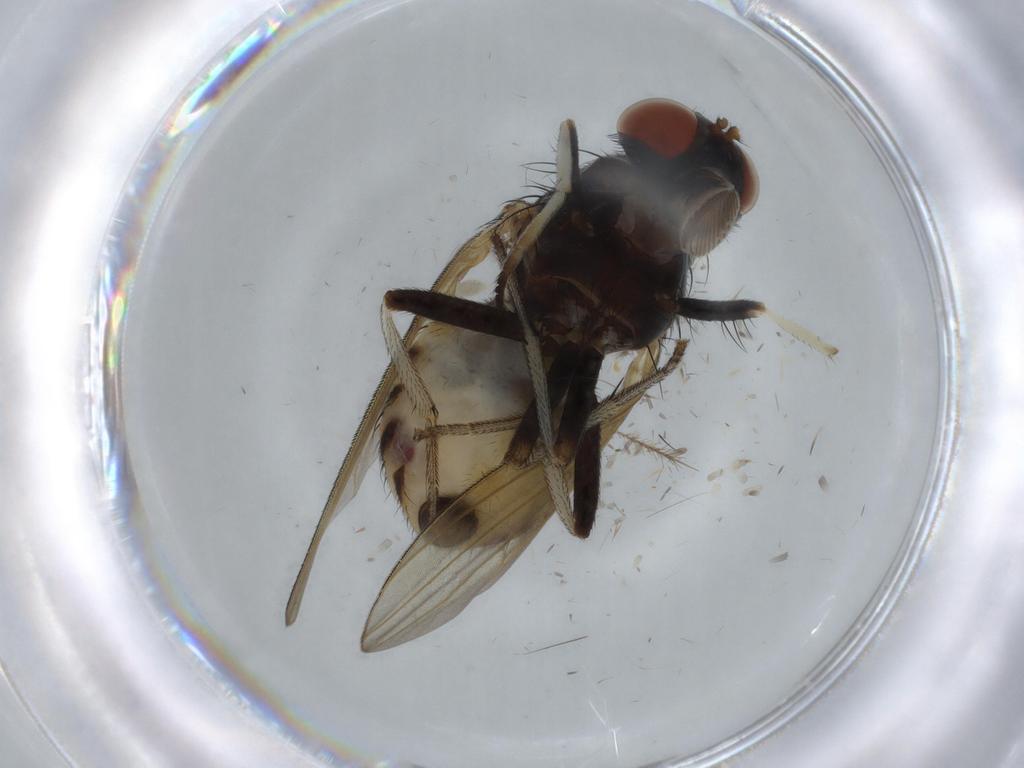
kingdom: Animalia
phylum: Arthropoda
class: Insecta
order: Diptera
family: Lauxaniidae
